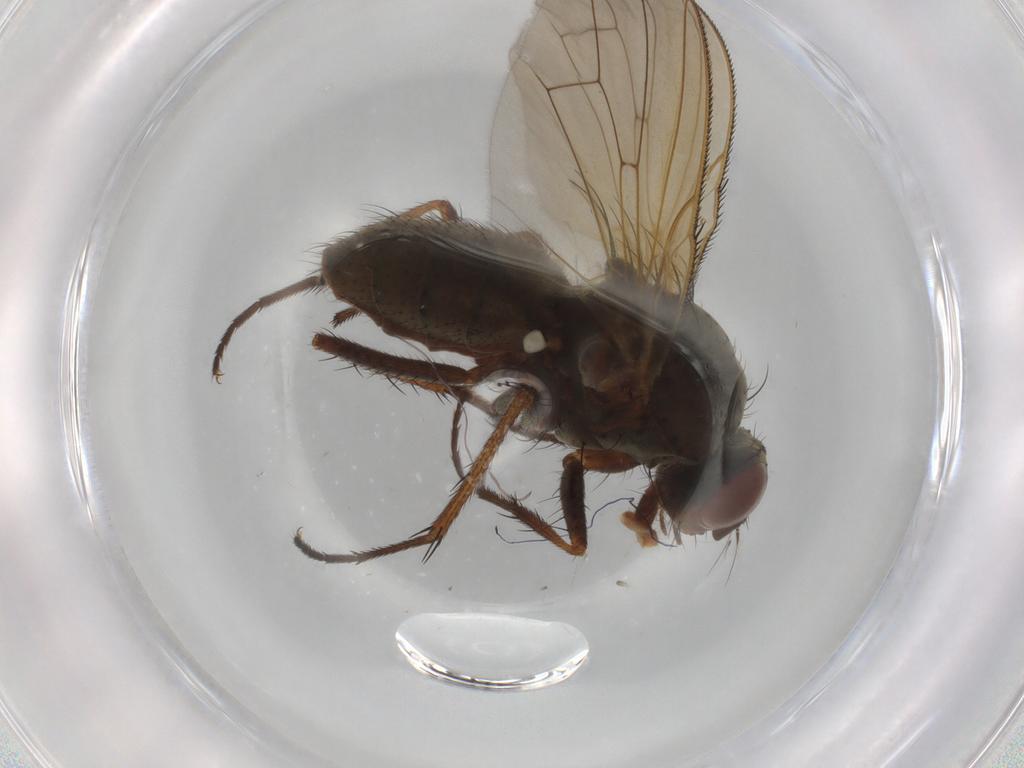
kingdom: Animalia
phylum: Arthropoda
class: Insecta
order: Diptera
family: Anthomyiidae
